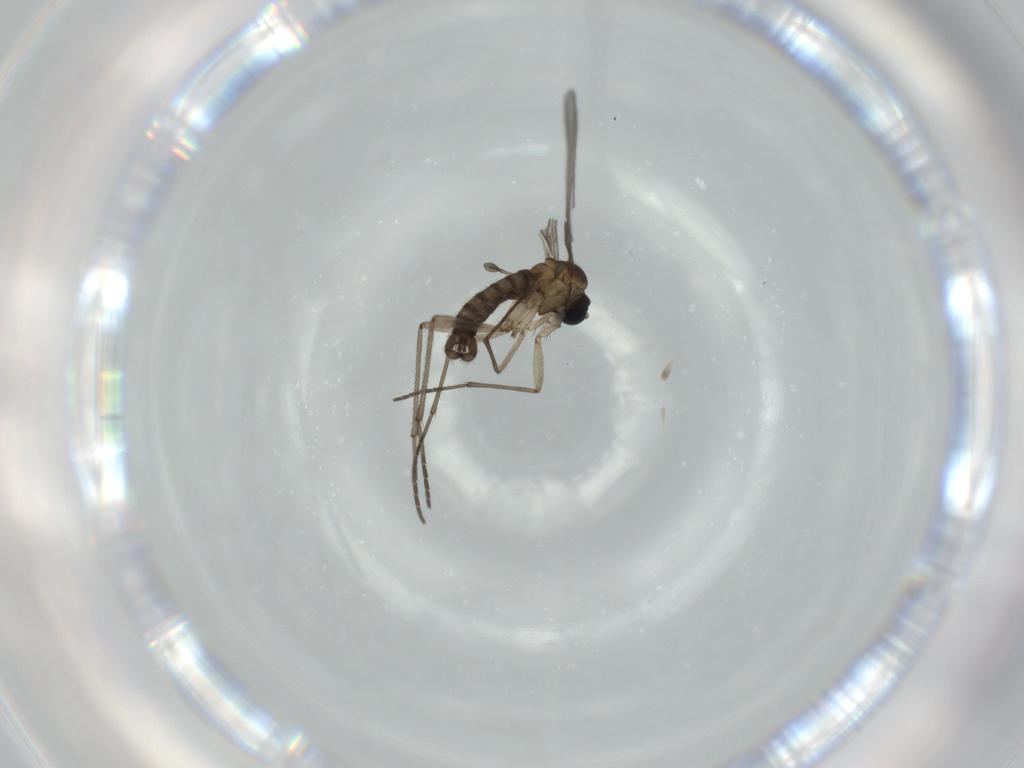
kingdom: Animalia
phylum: Arthropoda
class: Insecta
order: Diptera
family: Sciaridae
